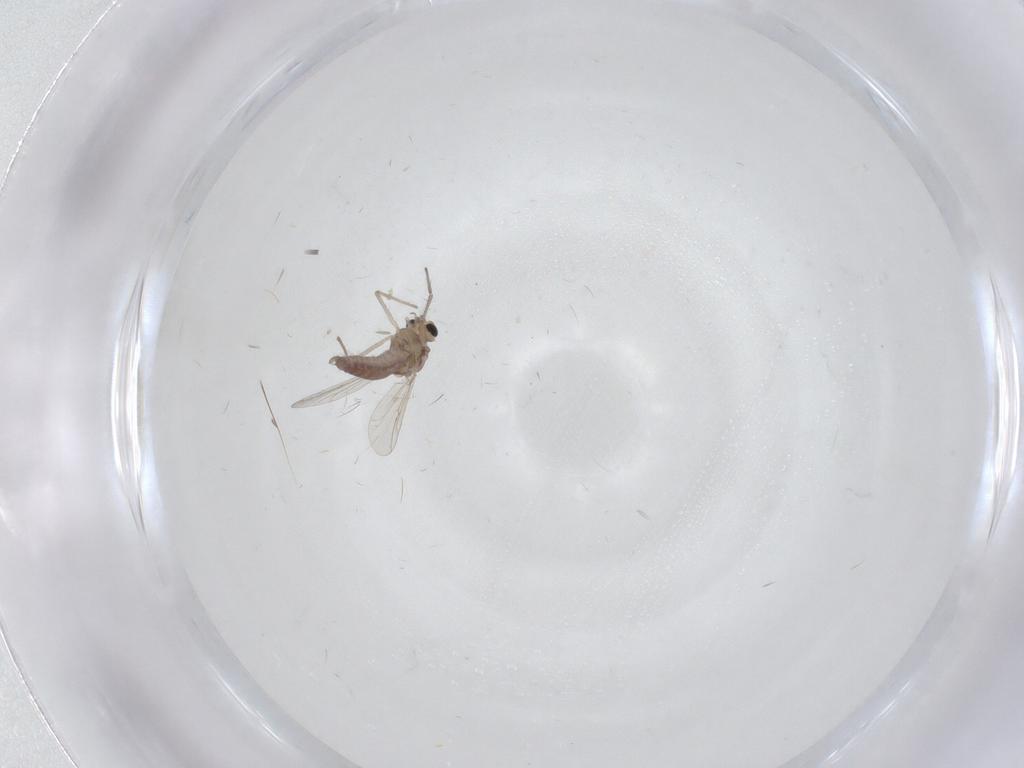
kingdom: Animalia
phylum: Arthropoda
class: Insecta
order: Diptera
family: Chironomidae
